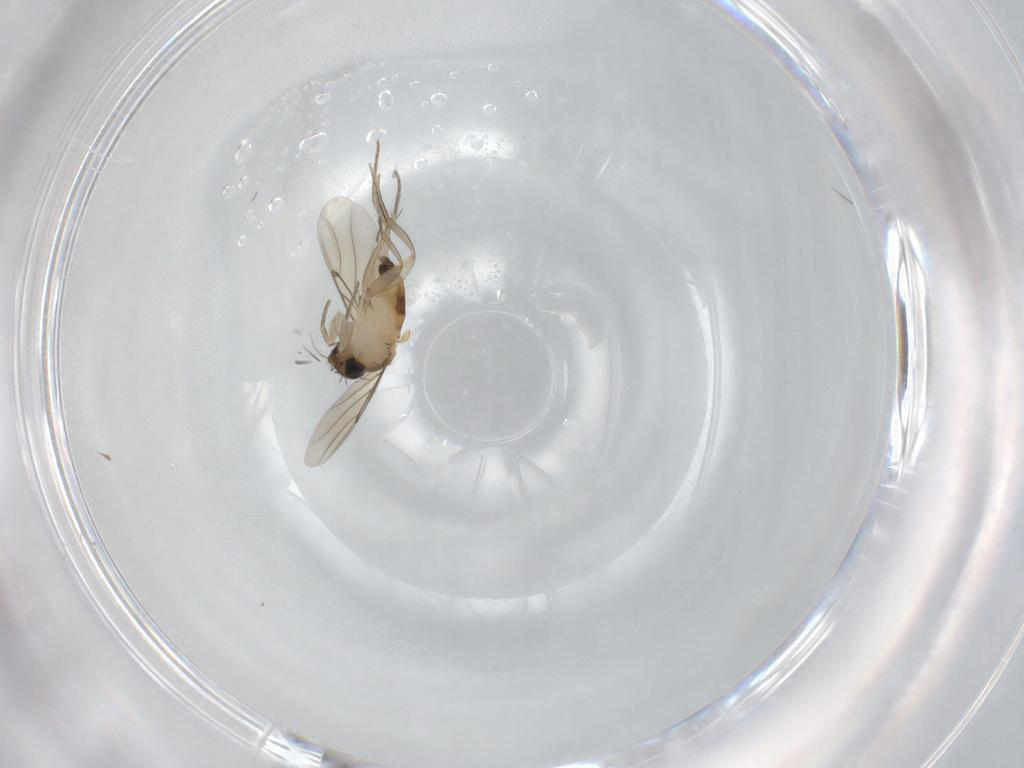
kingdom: Animalia
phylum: Arthropoda
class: Insecta
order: Diptera
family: Phoridae
